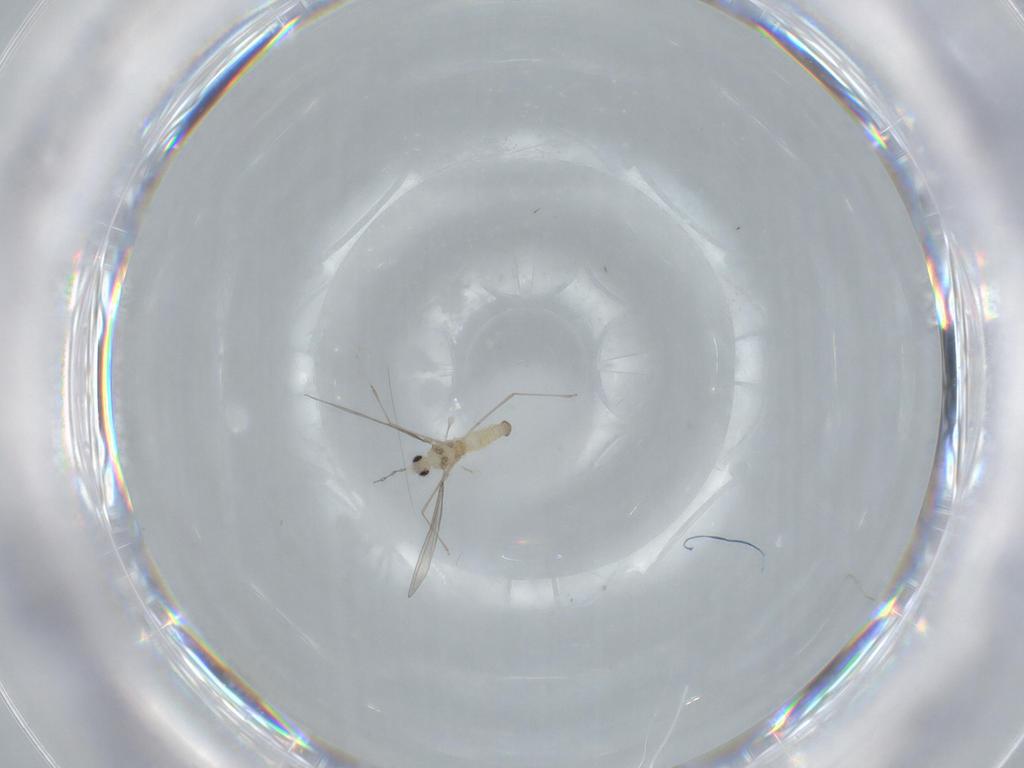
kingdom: Animalia
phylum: Arthropoda
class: Insecta
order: Diptera
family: Cecidomyiidae
